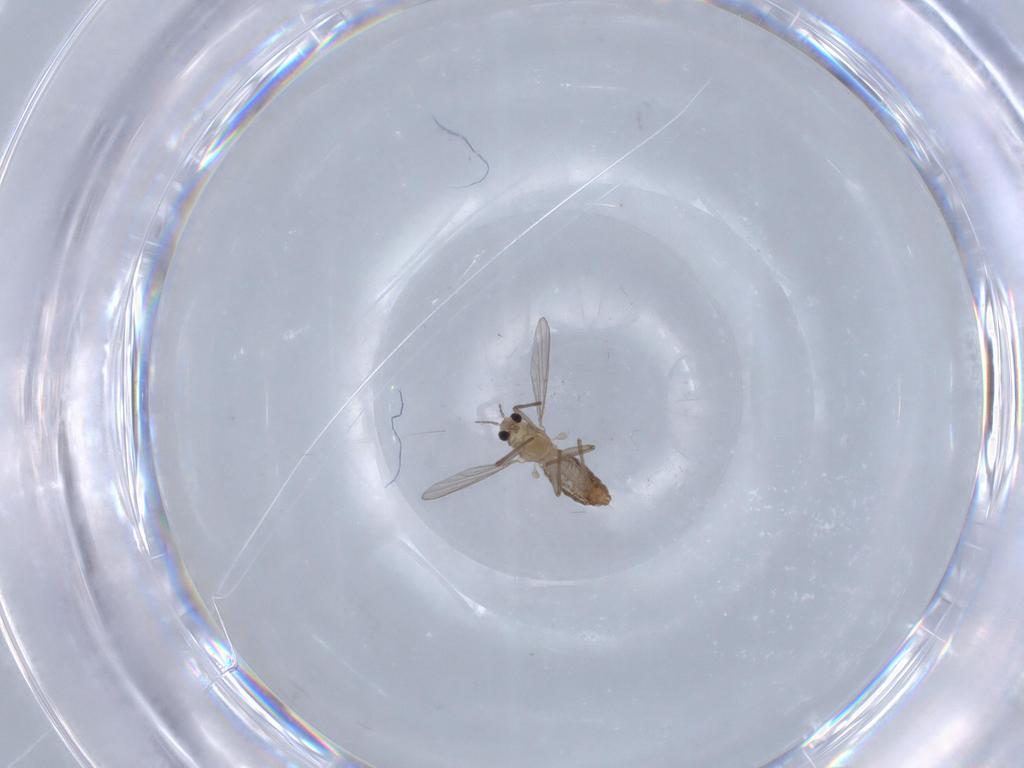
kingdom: Animalia
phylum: Arthropoda
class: Insecta
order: Diptera
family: Chironomidae
